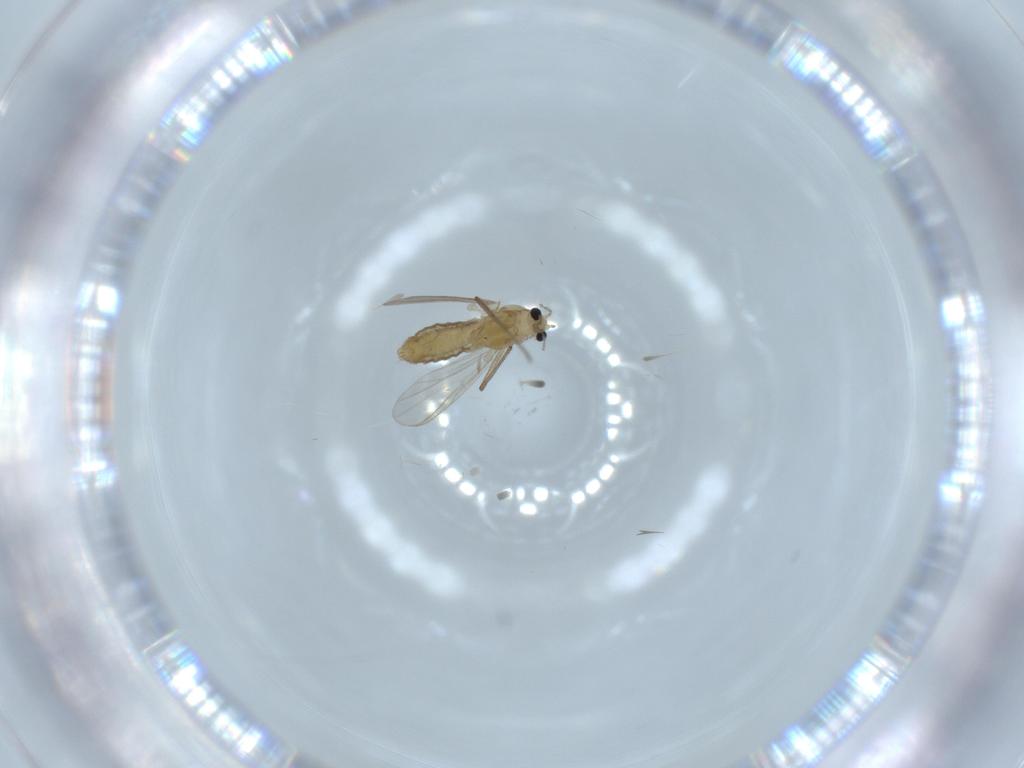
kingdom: Animalia
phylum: Arthropoda
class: Insecta
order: Diptera
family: Chironomidae
